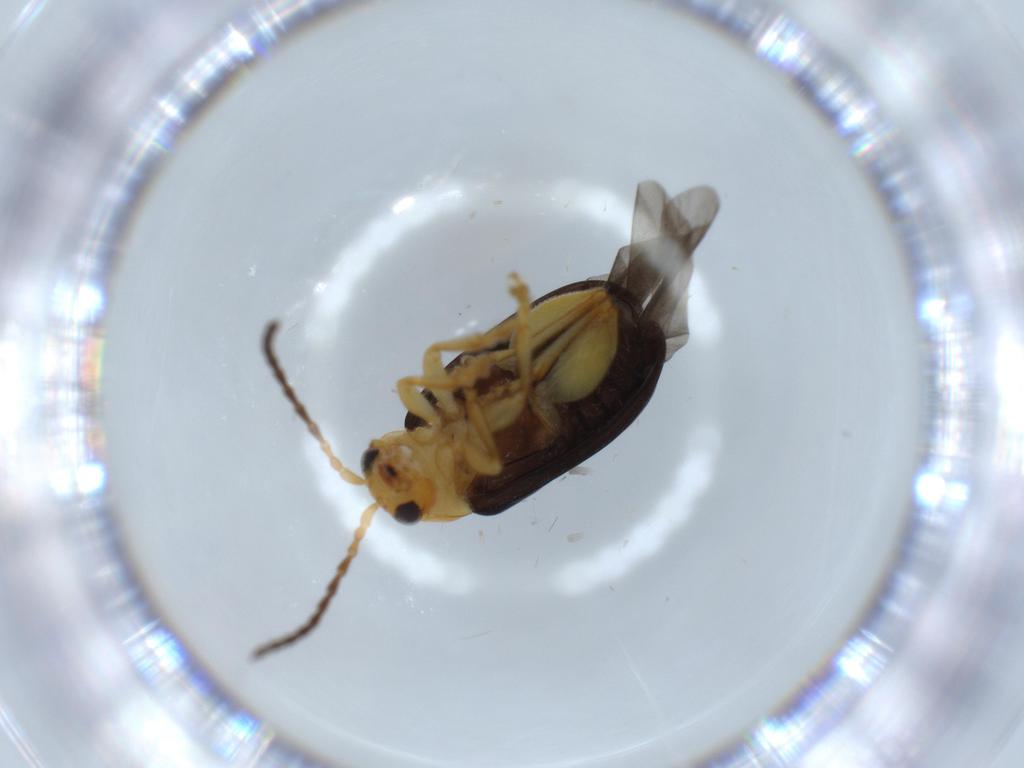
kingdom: Animalia
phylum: Arthropoda
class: Insecta
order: Coleoptera
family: Chrysomelidae
